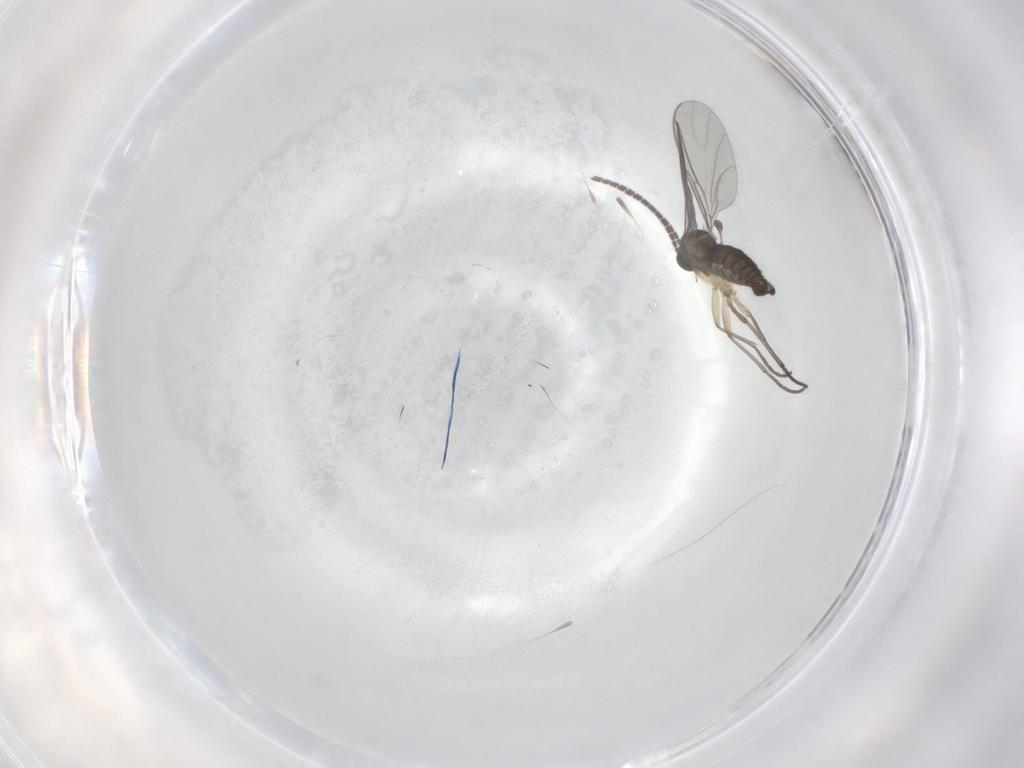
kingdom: Animalia
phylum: Arthropoda
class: Insecta
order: Diptera
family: Sciaridae
